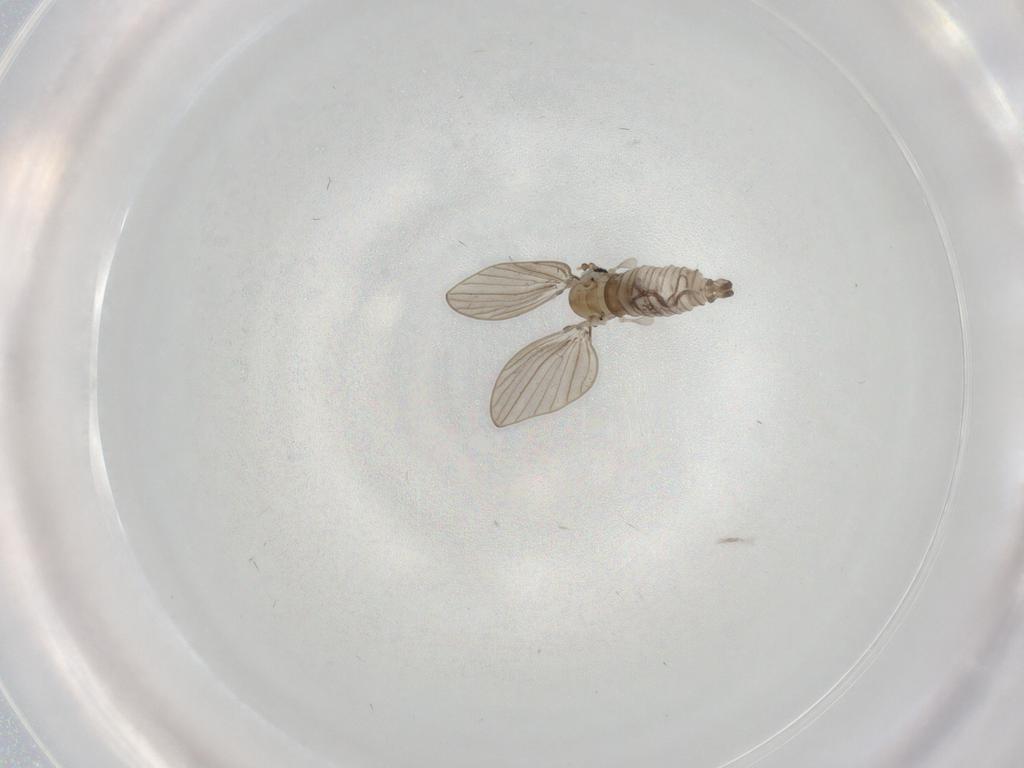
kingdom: Animalia
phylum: Arthropoda
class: Insecta
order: Diptera
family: Psychodidae
